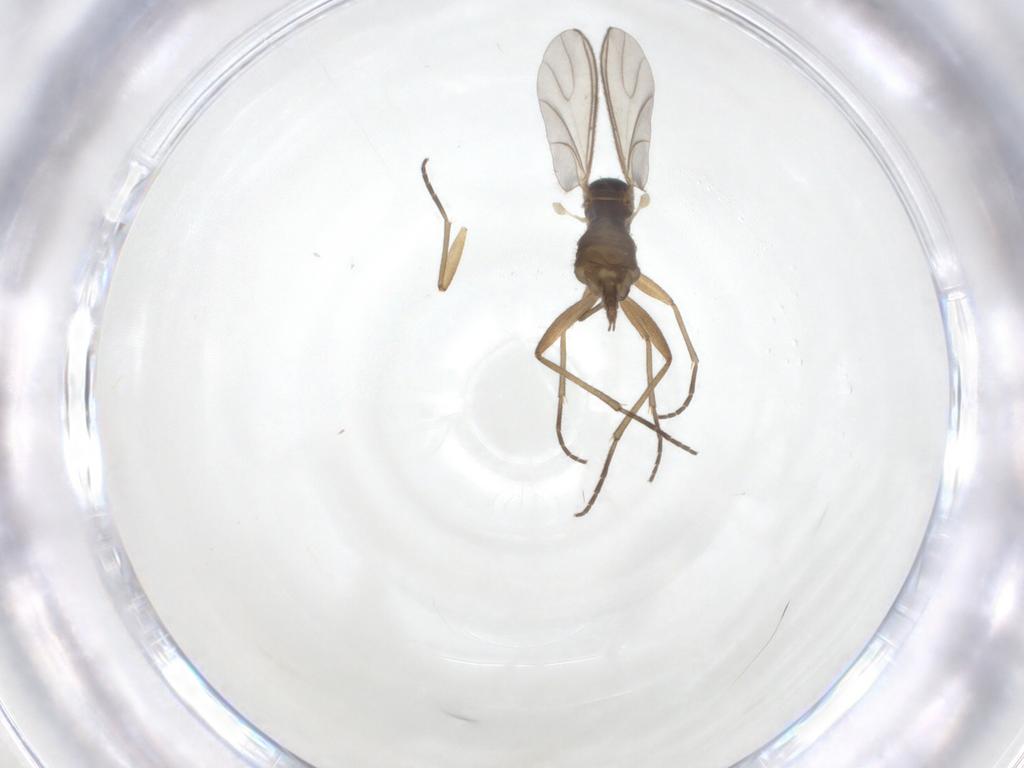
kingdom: Animalia
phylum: Arthropoda
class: Insecta
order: Diptera
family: Sciaridae
